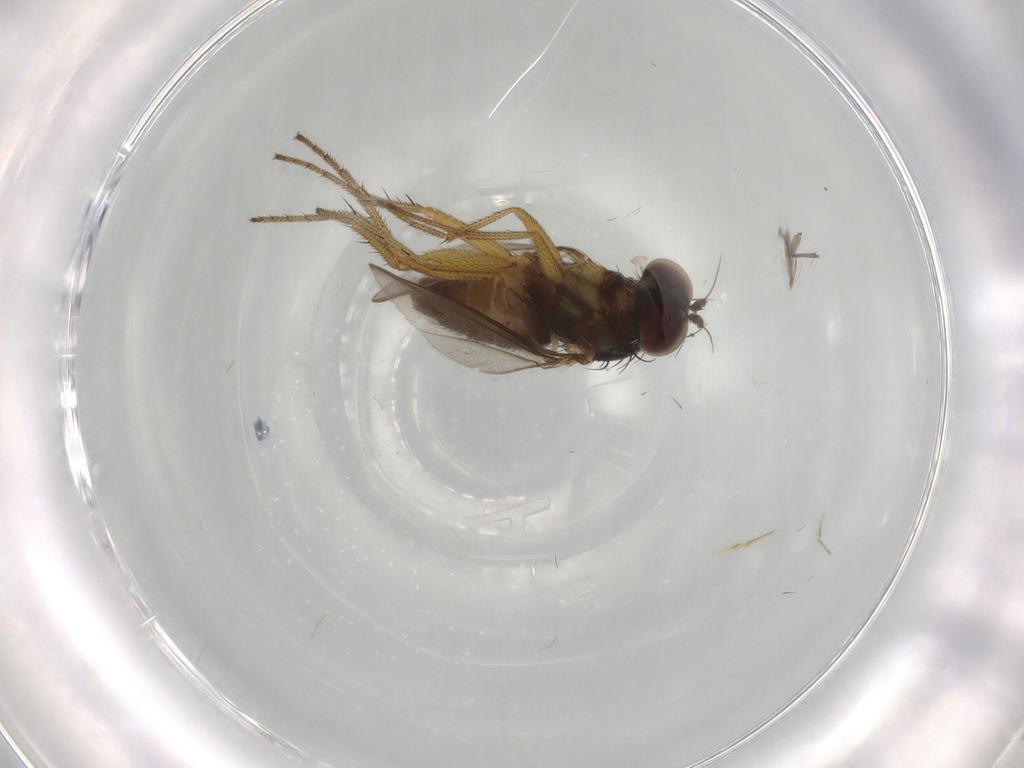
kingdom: Animalia
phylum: Arthropoda
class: Insecta
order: Diptera
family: Sciaridae
